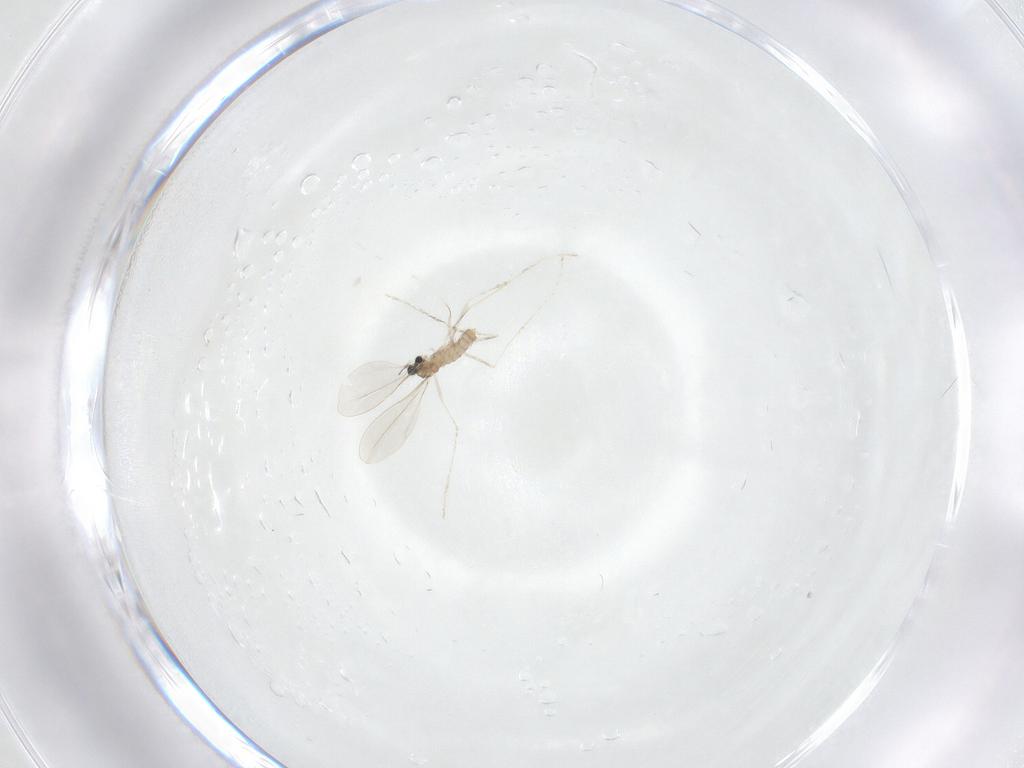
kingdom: Animalia
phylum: Arthropoda
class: Insecta
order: Diptera
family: Cecidomyiidae
